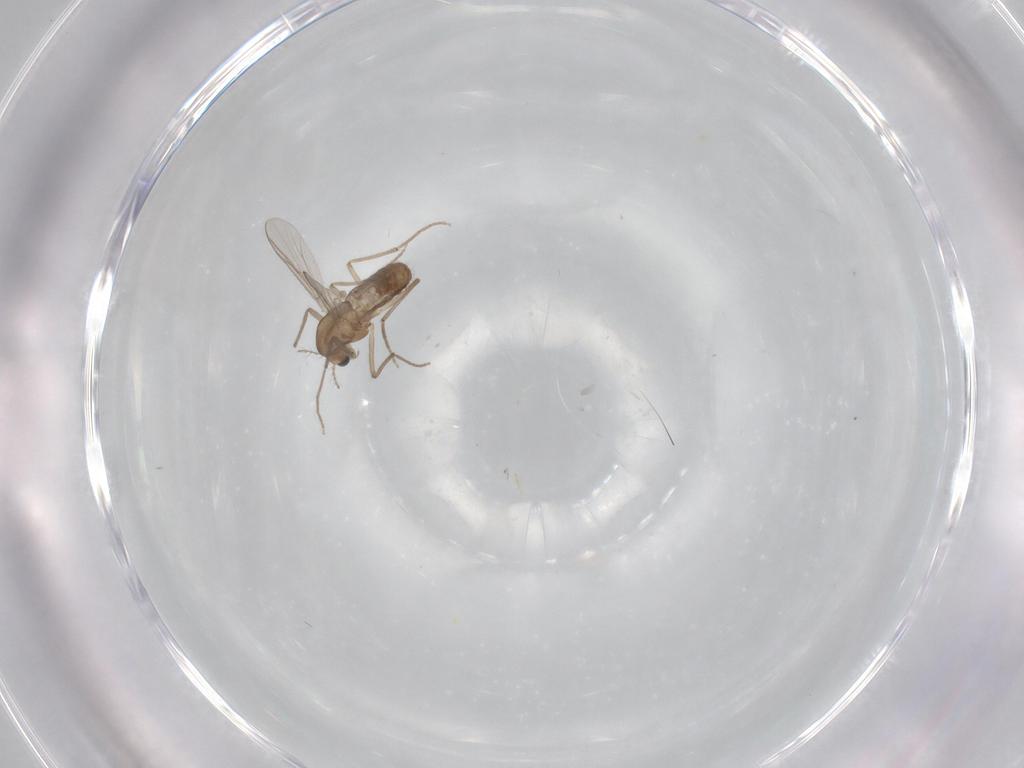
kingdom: Animalia
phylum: Arthropoda
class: Insecta
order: Diptera
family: Chironomidae
